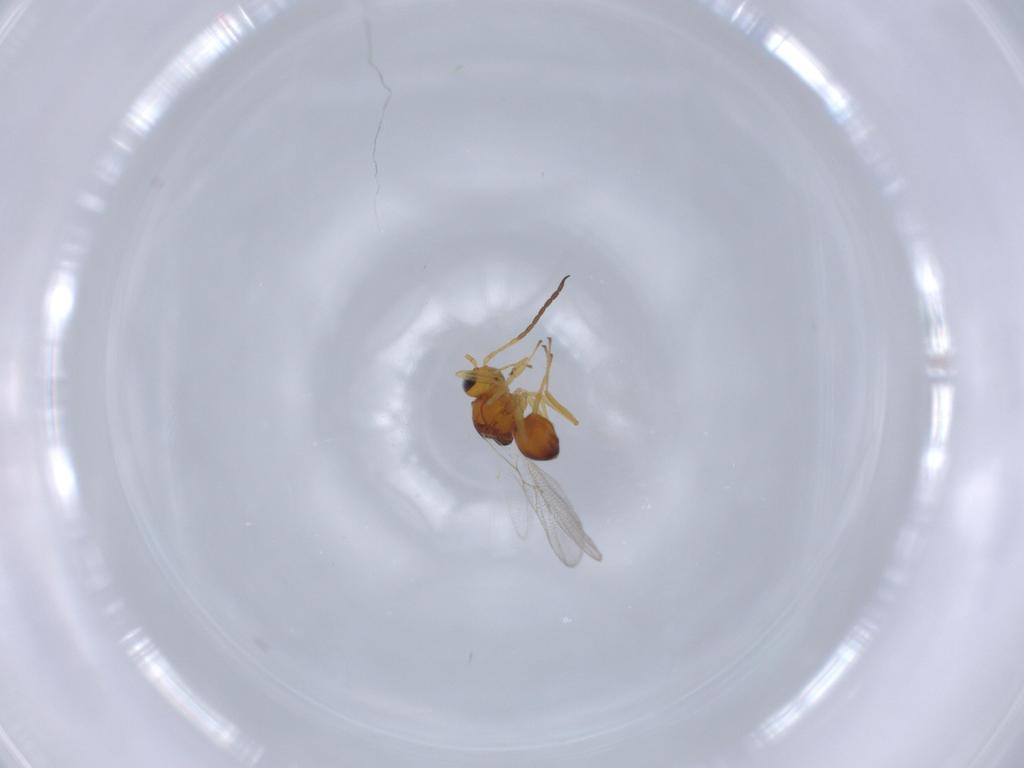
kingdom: Animalia
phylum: Arthropoda
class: Insecta
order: Hymenoptera
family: Figitidae
